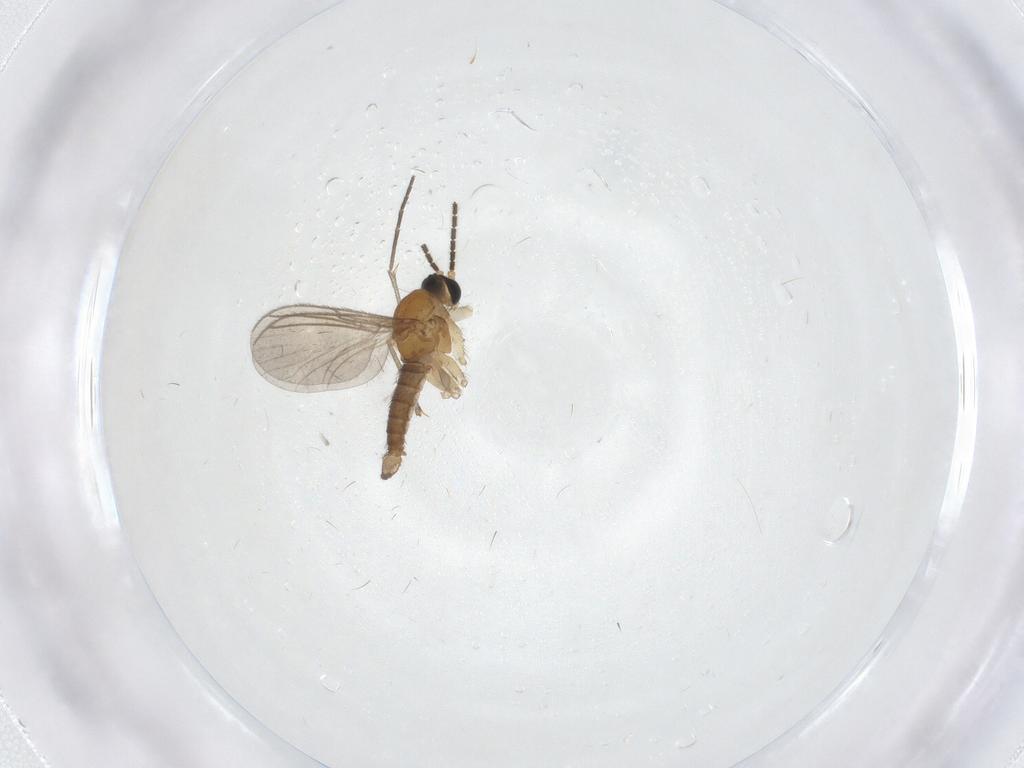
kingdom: Animalia
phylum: Arthropoda
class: Insecta
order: Diptera
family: Sciaridae
